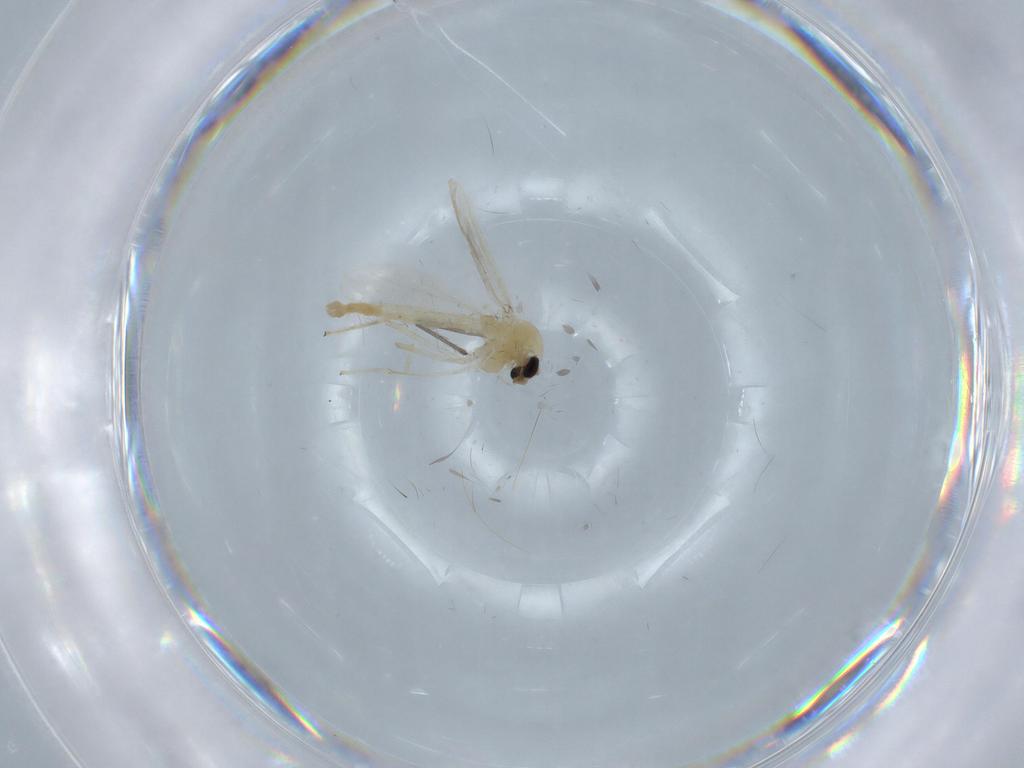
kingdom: Animalia
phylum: Arthropoda
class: Insecta
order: Diptera
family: Chironomidae
